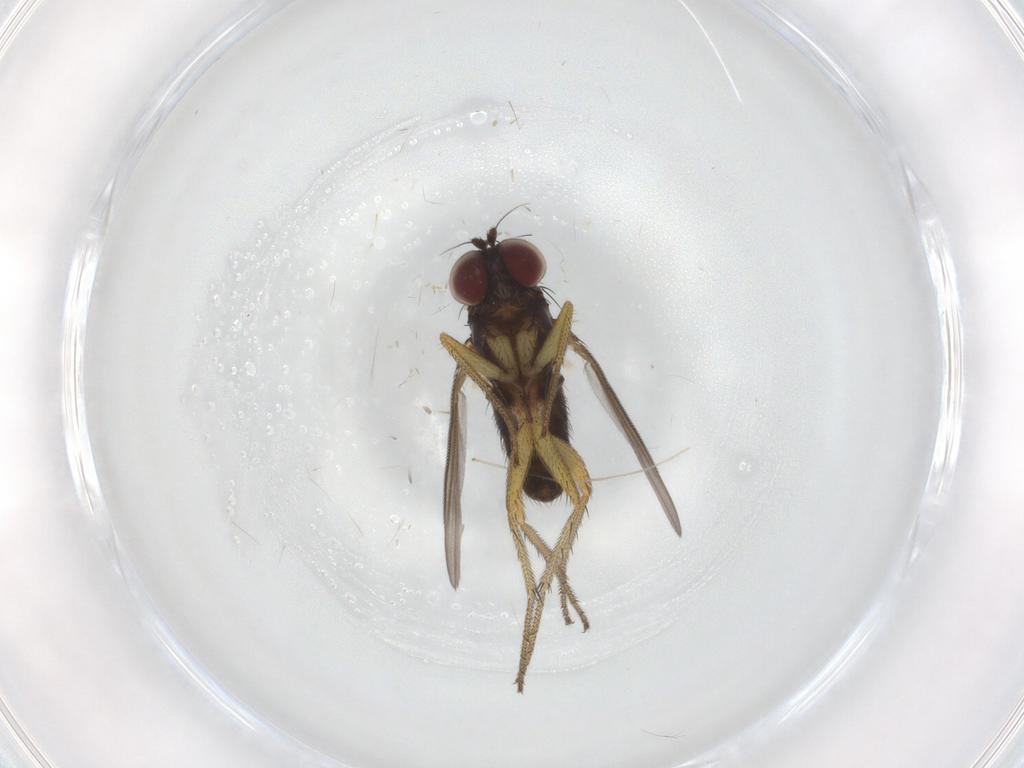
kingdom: Animalia
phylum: Arthropoda
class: Insecta
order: Diptera
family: Chironomidae
